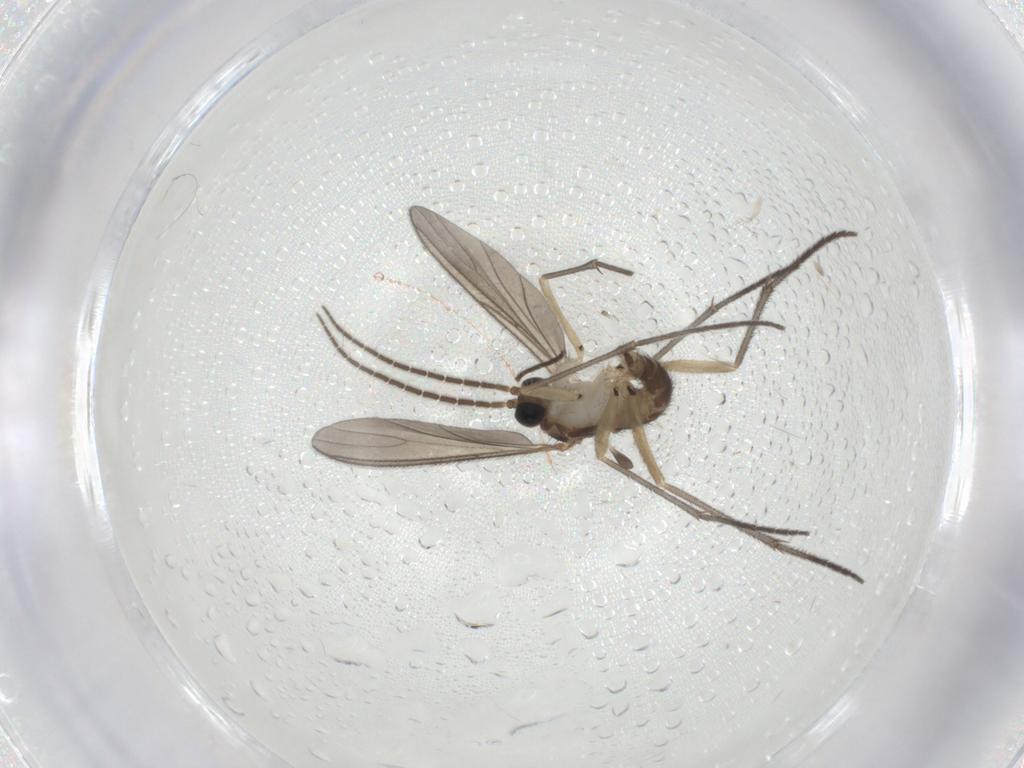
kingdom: Animalia
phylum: Arthropoda
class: Insecta
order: Diptera
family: Sciaridae
